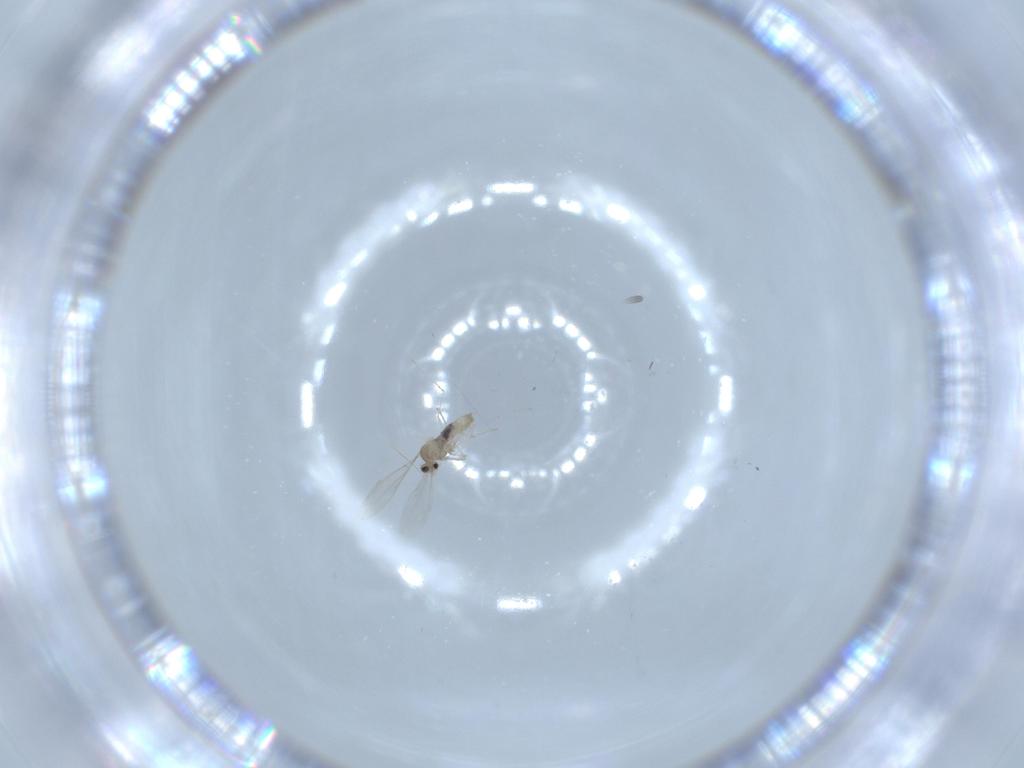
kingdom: Animalia
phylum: Arthropoda
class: Insecta
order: Diptera
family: Cecidomyiidae
